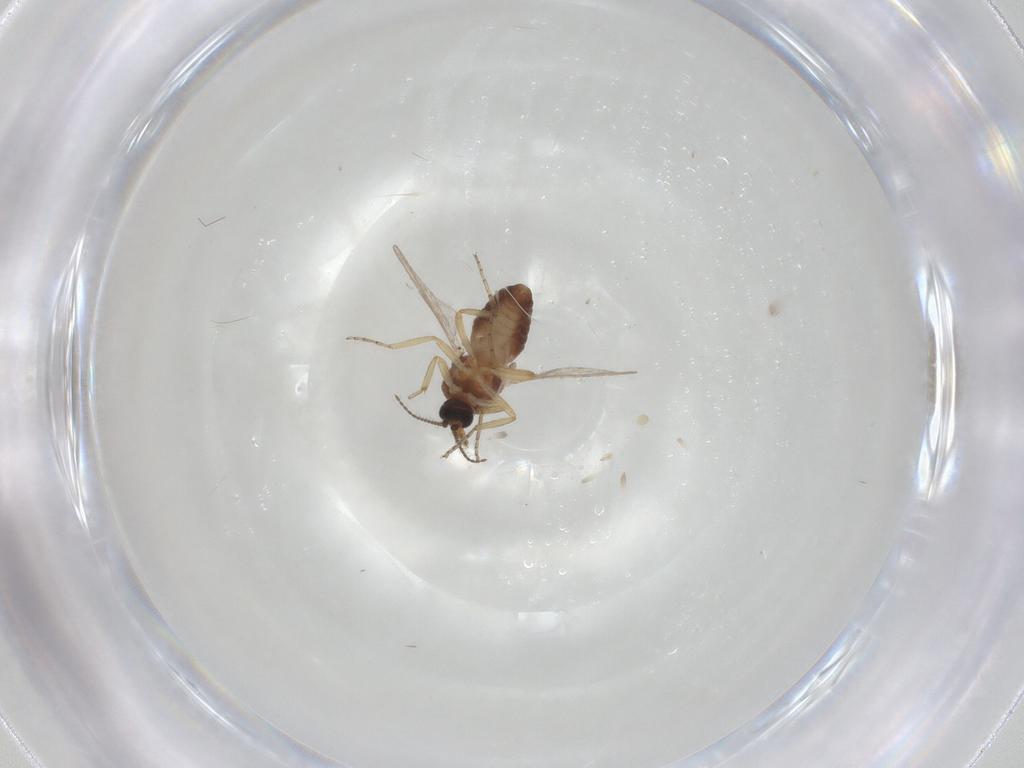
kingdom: Animalia
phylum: Arthropoda
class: Insecta
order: Diptera
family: Cecidomyiidae
